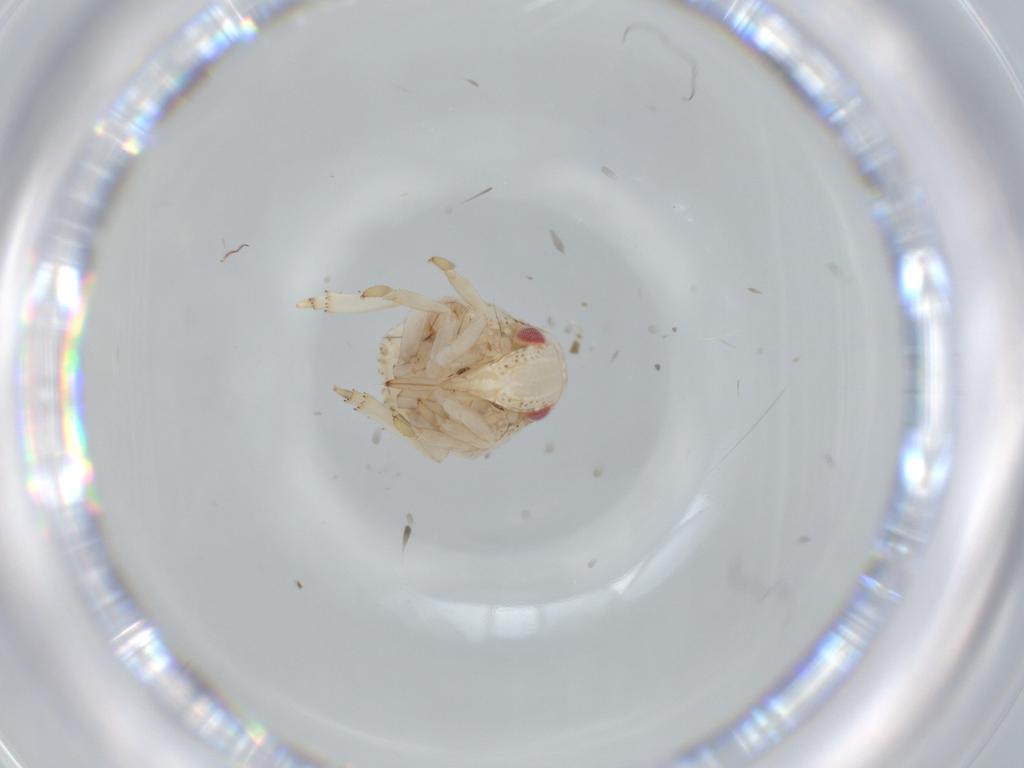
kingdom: Animalia
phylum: Arthropoda
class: Insecta
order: Hemiptera
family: Acanaloniidae
